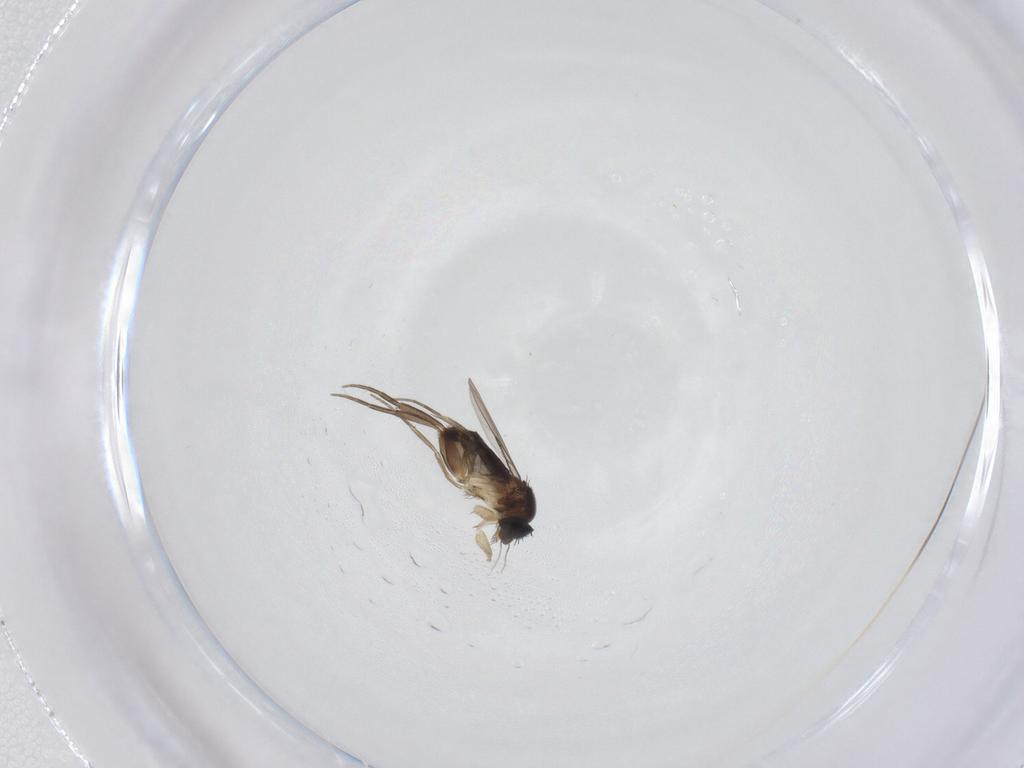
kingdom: Animalia
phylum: Arthropoda
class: Insecta
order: Diptera
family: Cecidomyiidae
